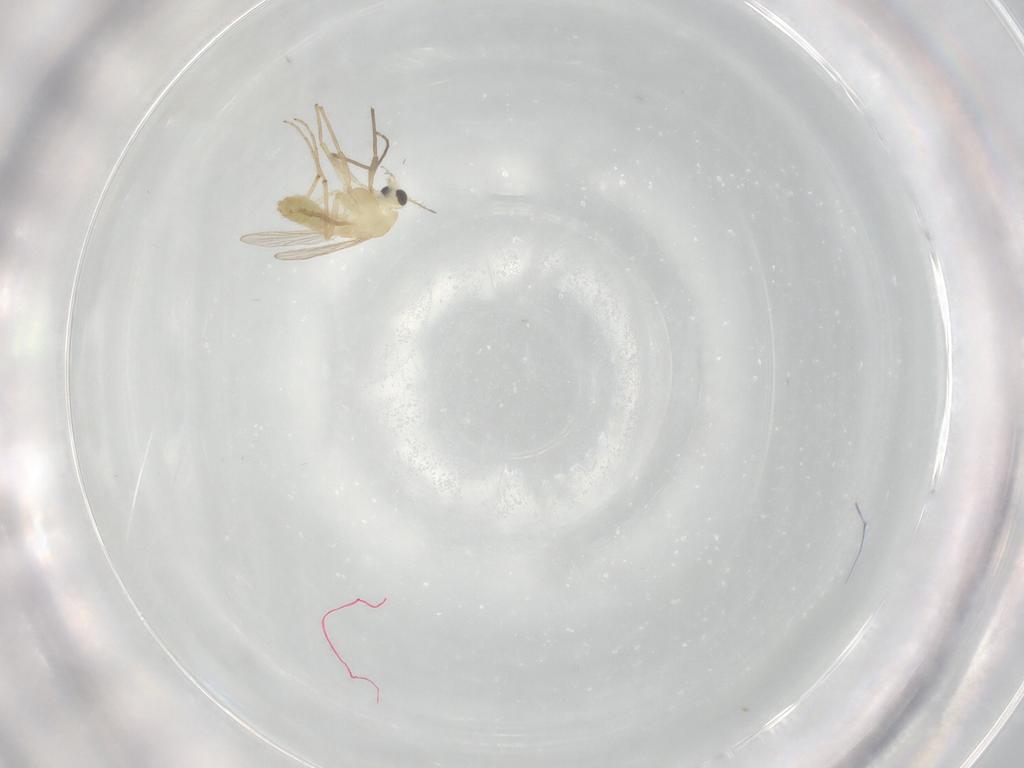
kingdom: Animalia
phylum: Arthropoda
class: Insecta
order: Diptera
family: Chironomidae
